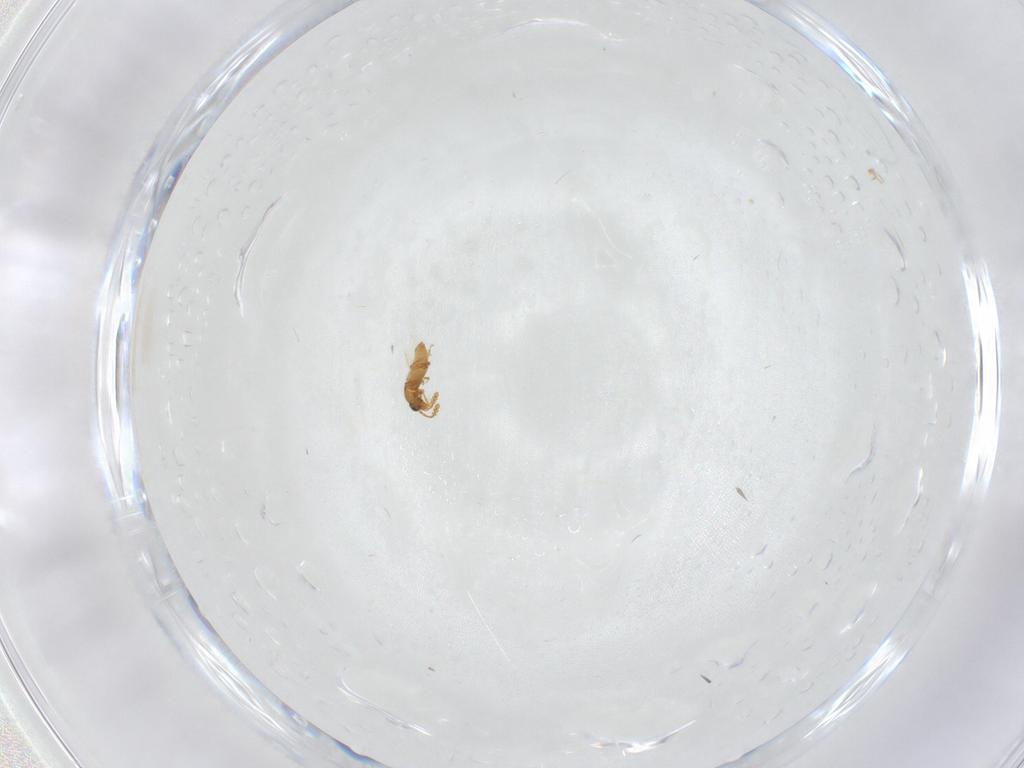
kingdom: Animalia
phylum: Arthropoda
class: Insecta
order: Coleoptera
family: Staphylinidae
